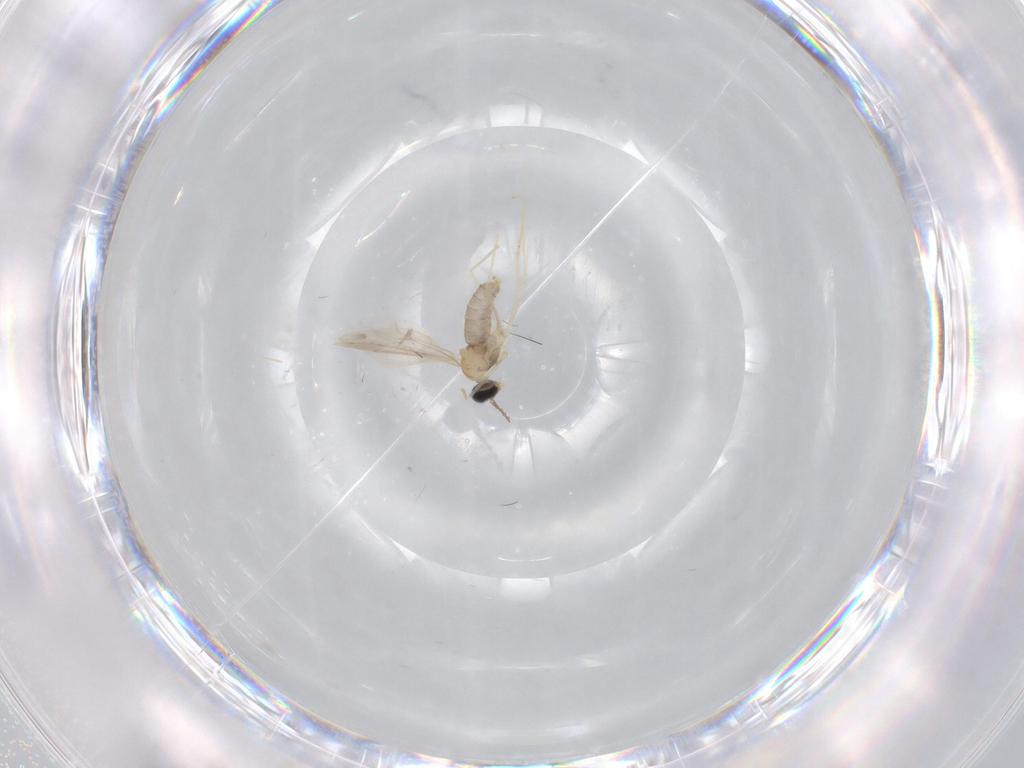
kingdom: Animalia
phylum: Arthropoda
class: Insecta
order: Diptera
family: Cecidomyiidae
